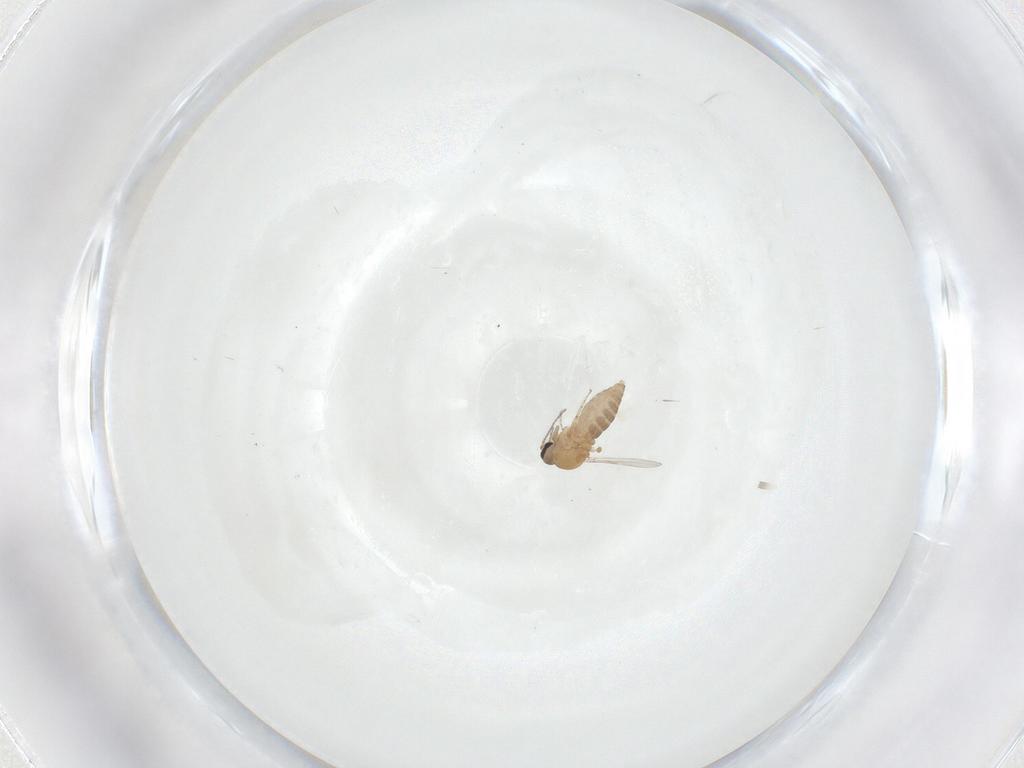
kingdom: Animalia
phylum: Arthropoda
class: Insecta
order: Diptera
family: Ceratopogonidae
